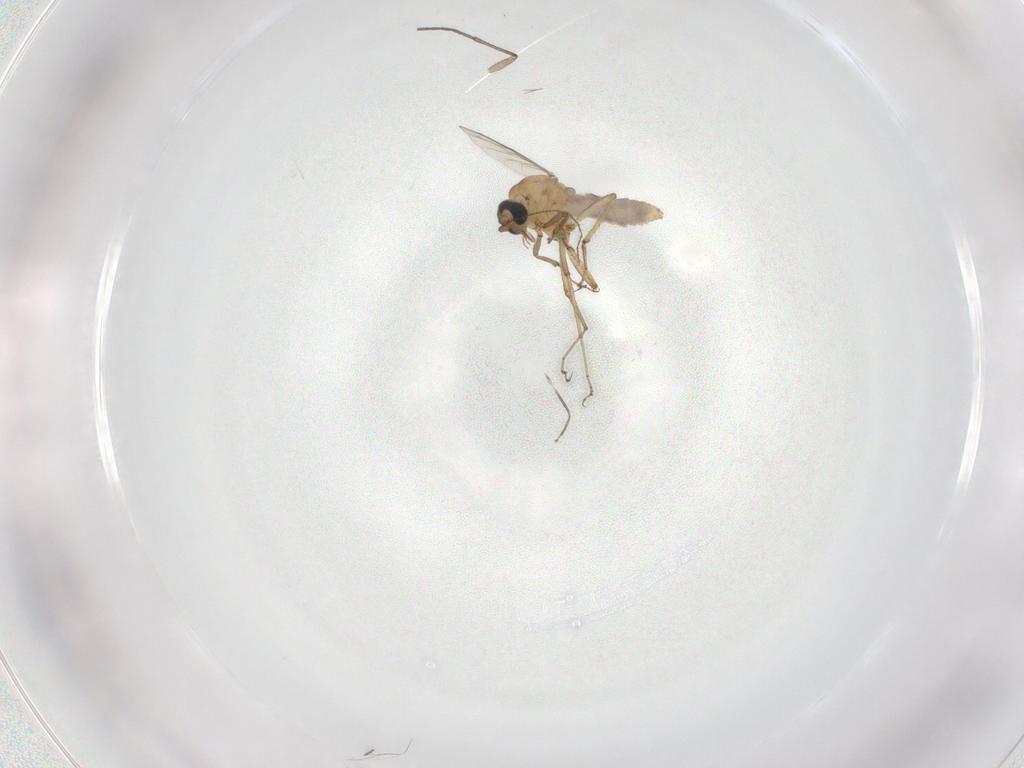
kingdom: Animalia
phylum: Arthropoda
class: Insecta
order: Diptera
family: Ceratopogonidae
